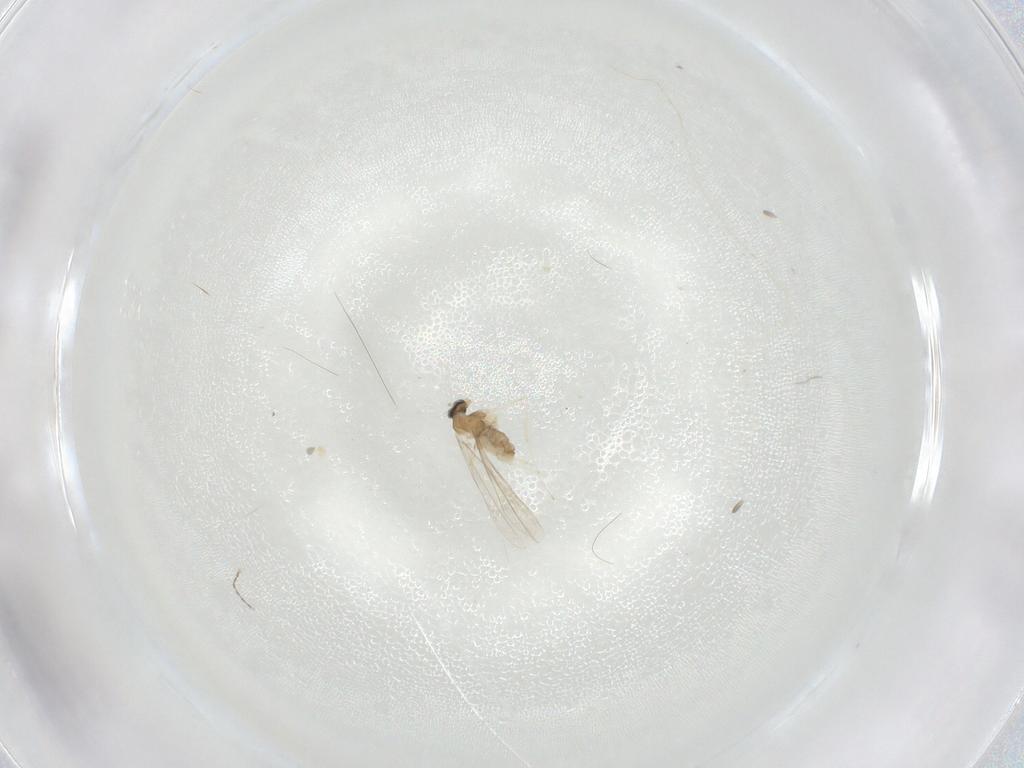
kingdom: Animalia
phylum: Arthropoda
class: Insecta
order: Diptera
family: Cecidomyiidae
